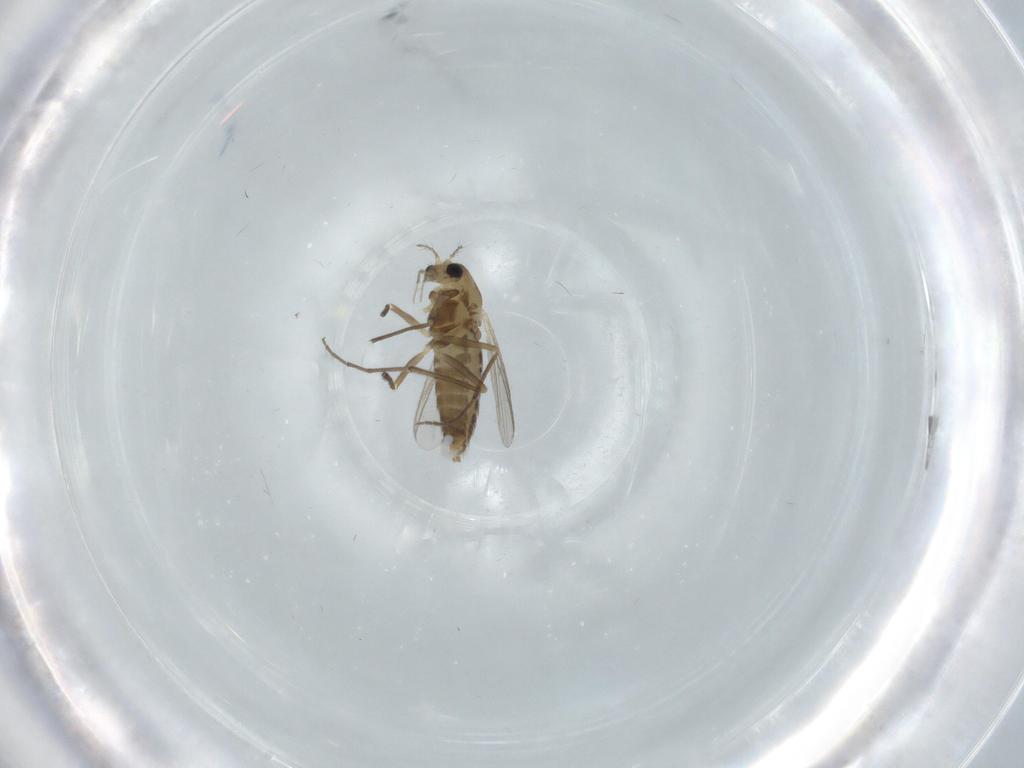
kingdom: Animalia
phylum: Arthropoda
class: Insecta
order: Diptera
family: Chironomidae
